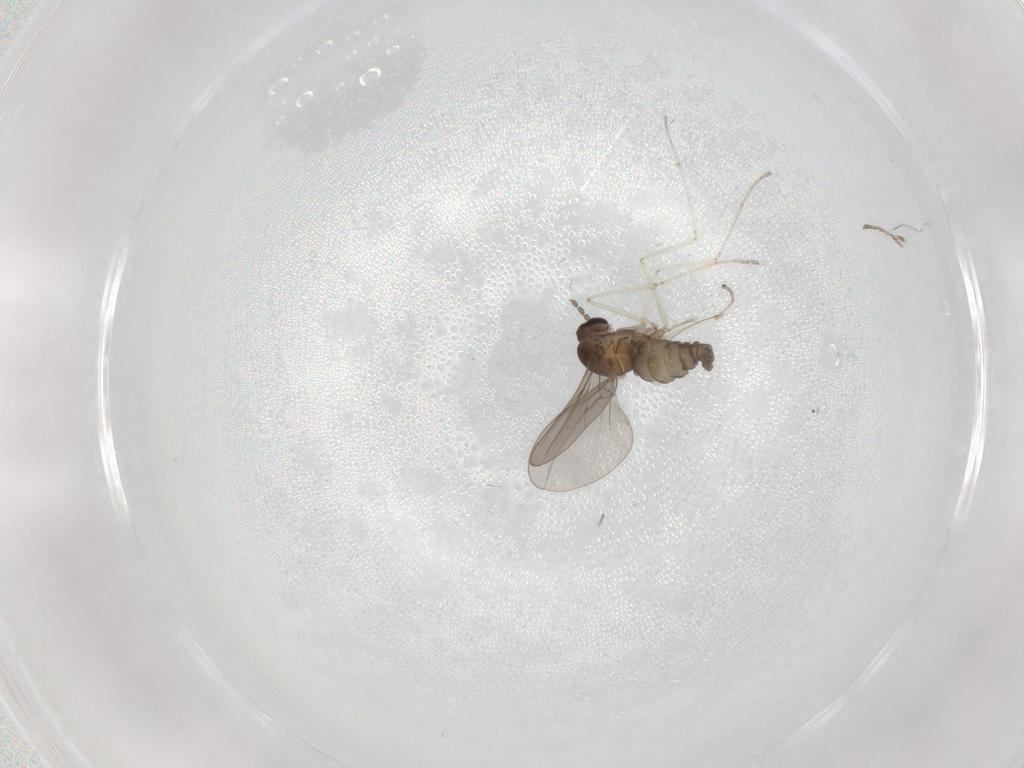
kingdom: Animalia
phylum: Arthropoda
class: Insecta
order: Diptera
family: Cecidomyiidae
